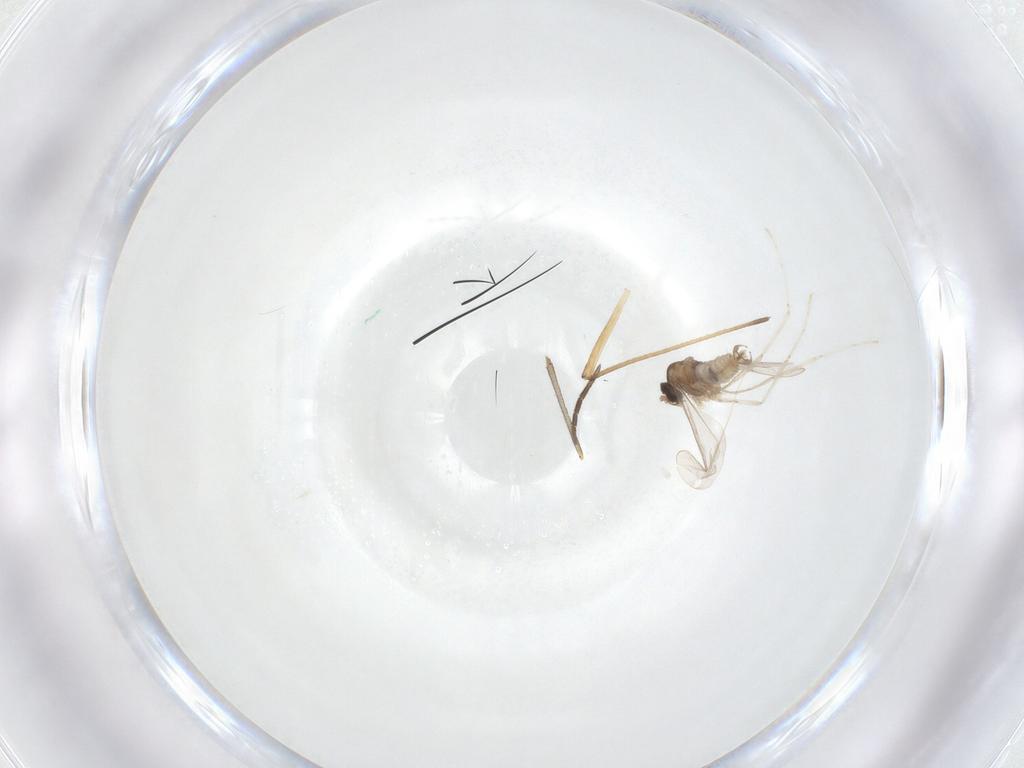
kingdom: Animalia
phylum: Arthropoda
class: Insecta
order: Diptera
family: Cecidomyiidae
